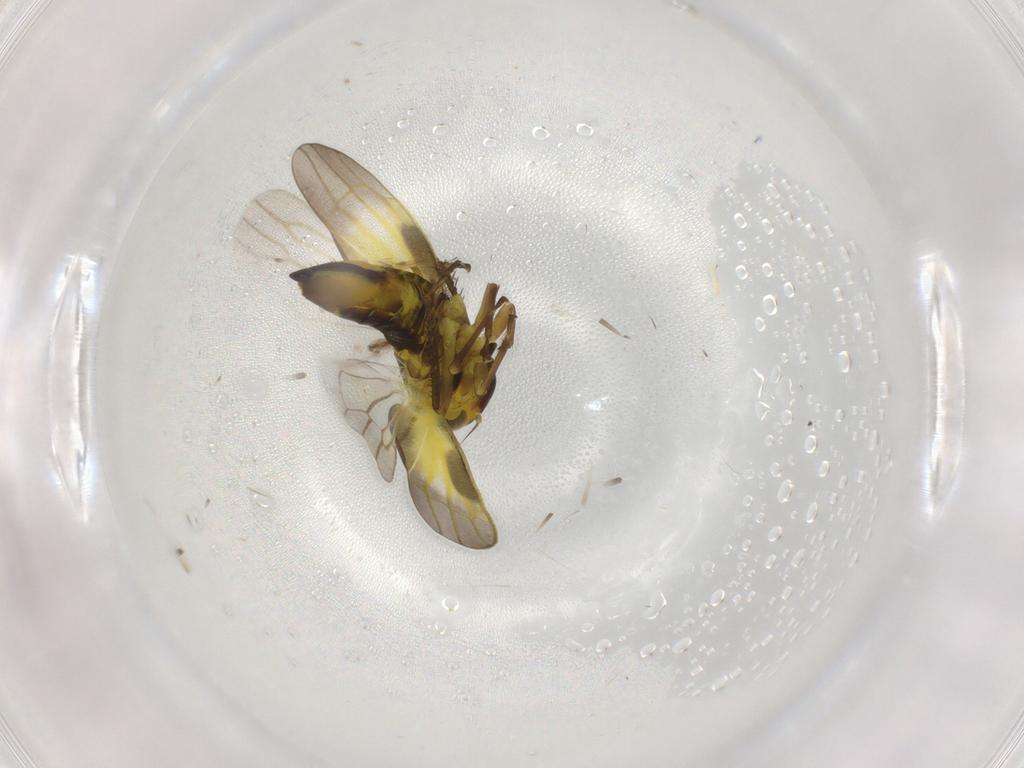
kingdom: Animalia
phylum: Arthropoda
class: Insecta
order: Hemiptera
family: Cicadellidae
